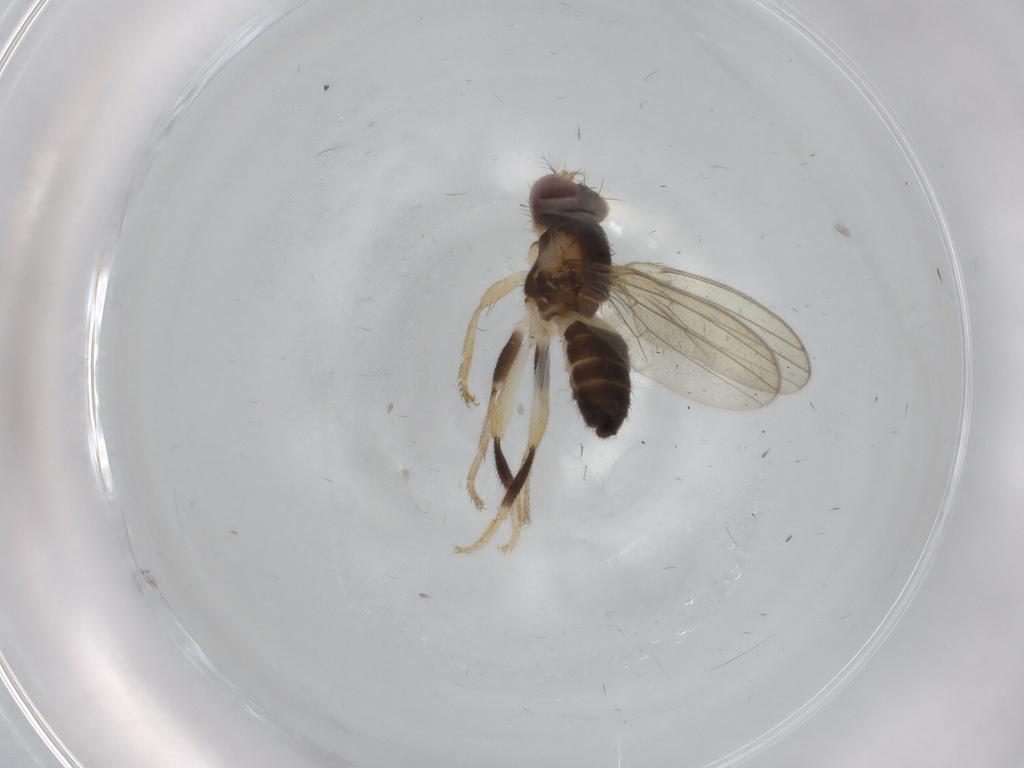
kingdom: Animalia
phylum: Arthropoda
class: Insecta
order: Diptera
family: Periscelididae
